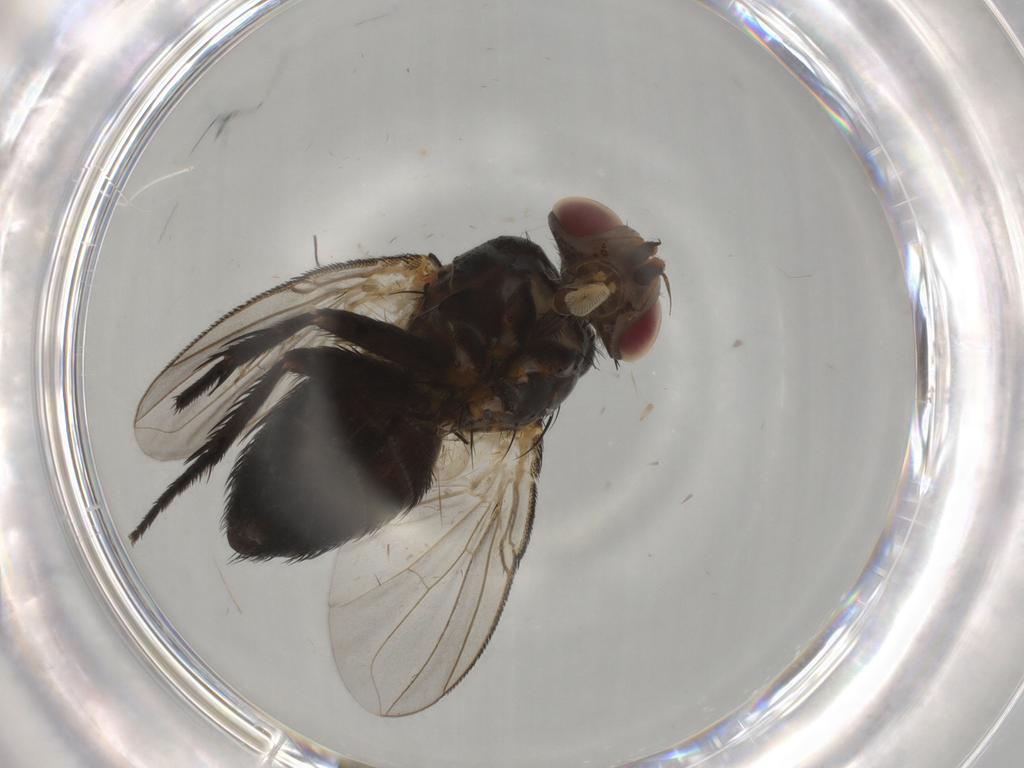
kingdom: Animalia
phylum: Arthropoda
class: Insecta
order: Diptera
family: Tachinidae
